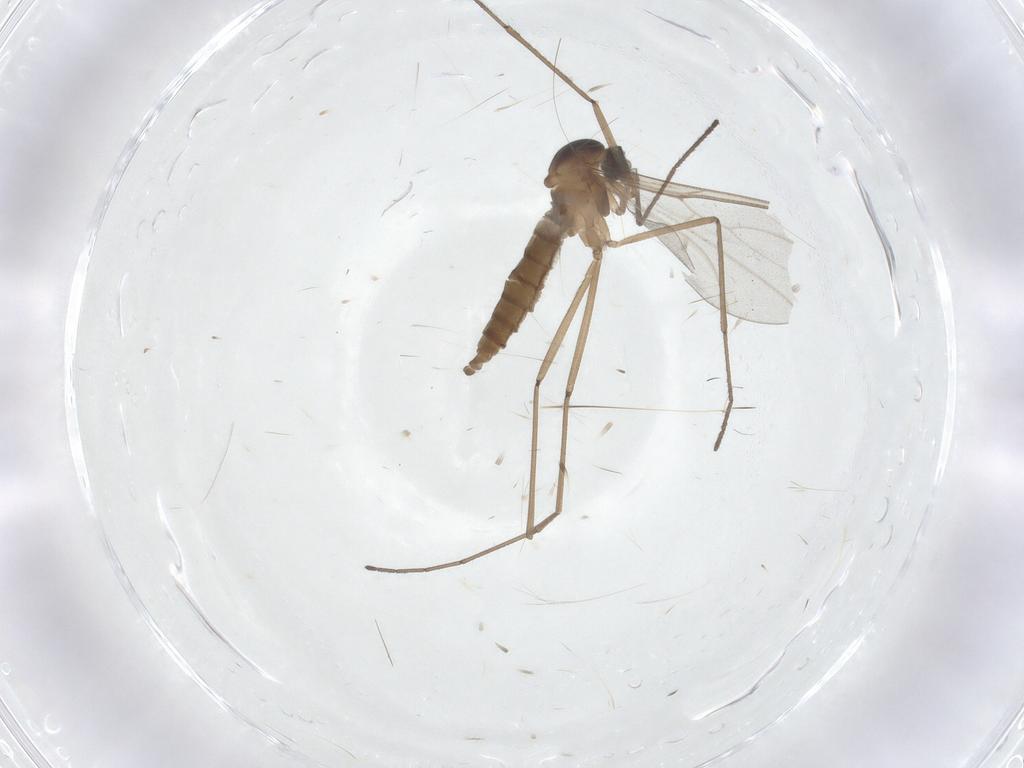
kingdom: Animalia
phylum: Arthropoda
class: Insecta
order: Diptera
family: Cecidomyiidae
